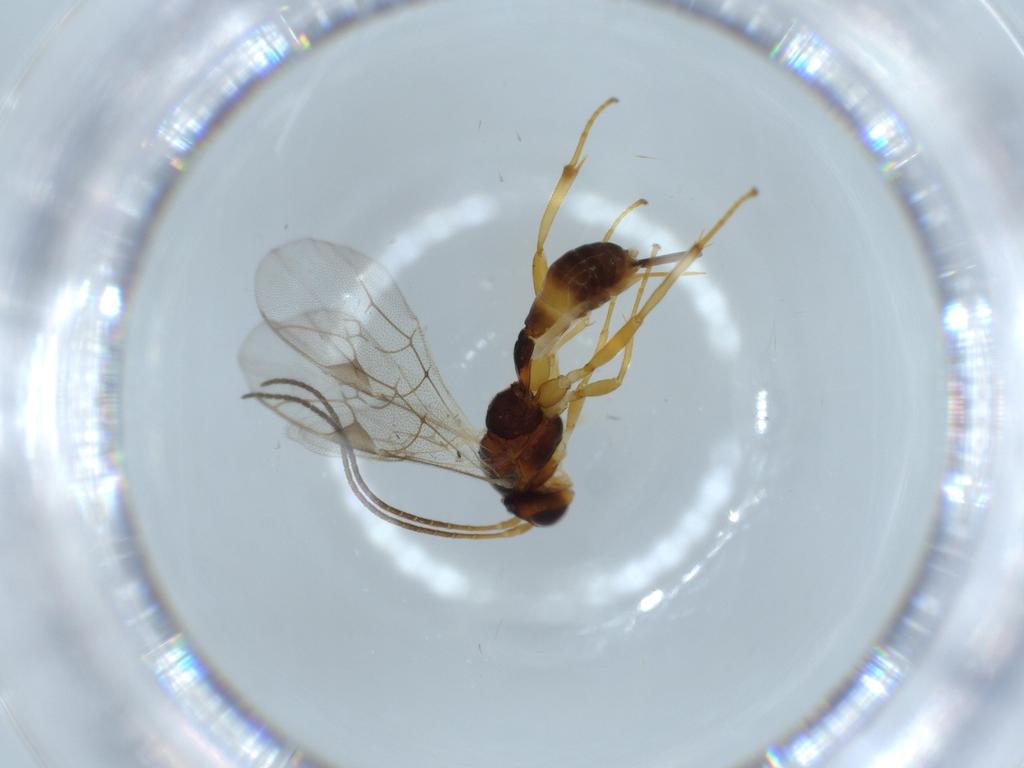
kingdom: Animalia
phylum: Arthropoda
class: Insecta
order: Hymenoptera
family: Ichneumonidae
